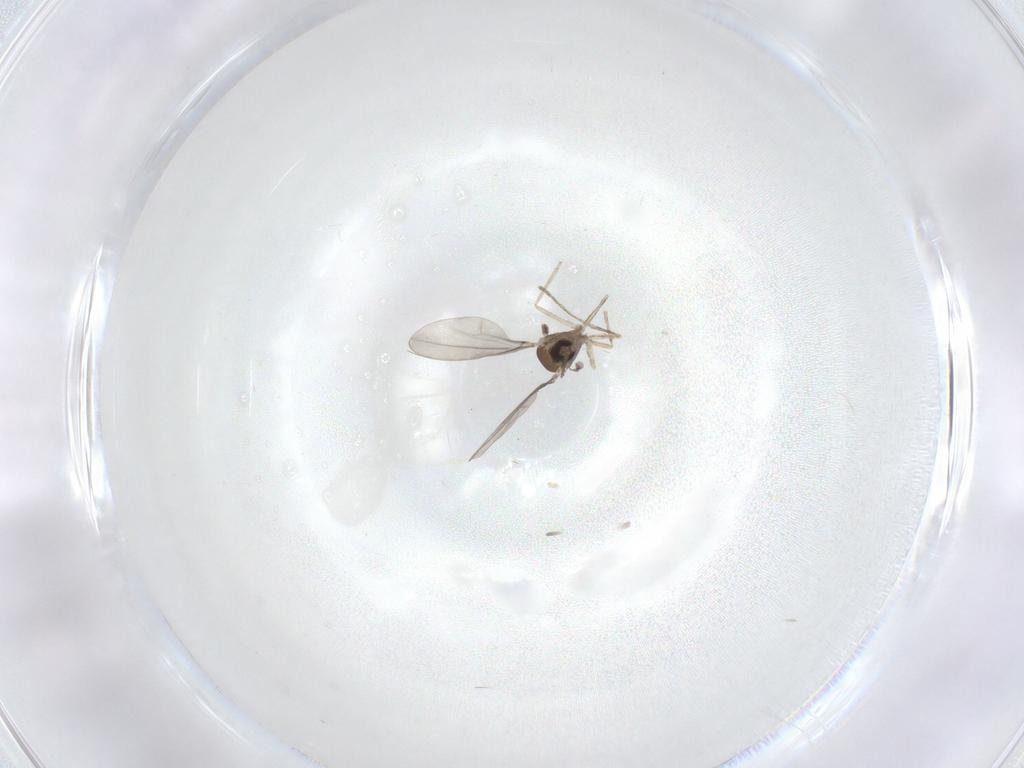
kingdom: Animalia
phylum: Arthropoda
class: Insecta
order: Diptera
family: Cecidomyiidae
